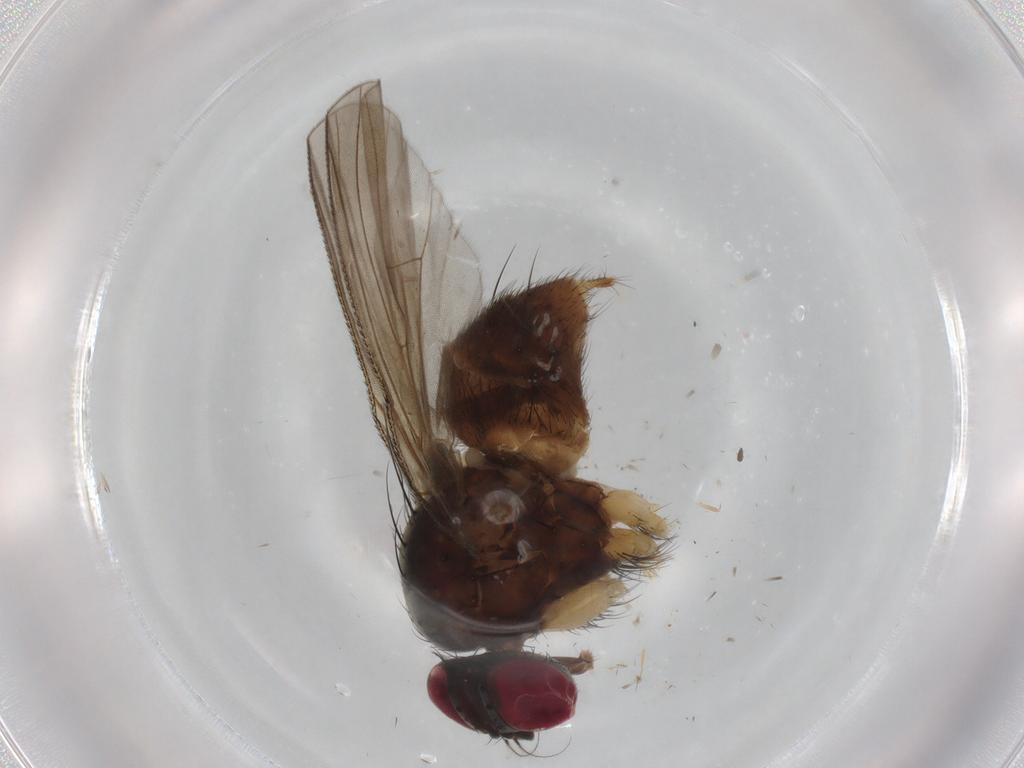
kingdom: Animalia
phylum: Arthropoda
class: Insecta
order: Diptera
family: Muscidae
